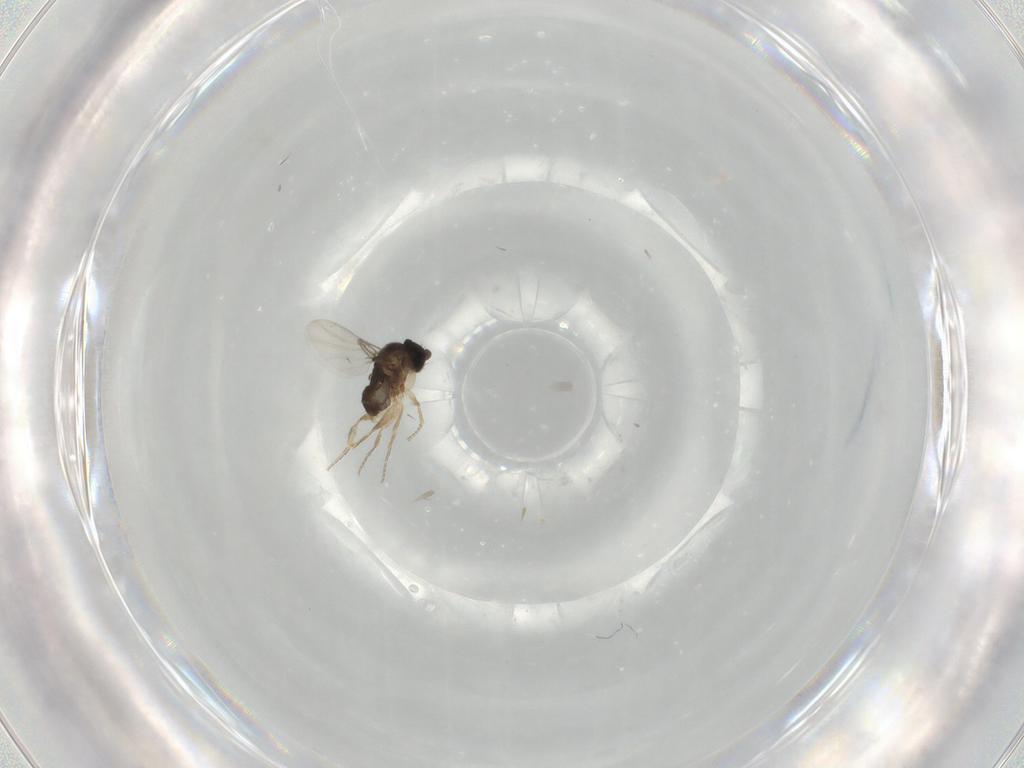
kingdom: Animalia
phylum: Arthropoda
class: Insecta
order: Diptera
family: Phoridae
